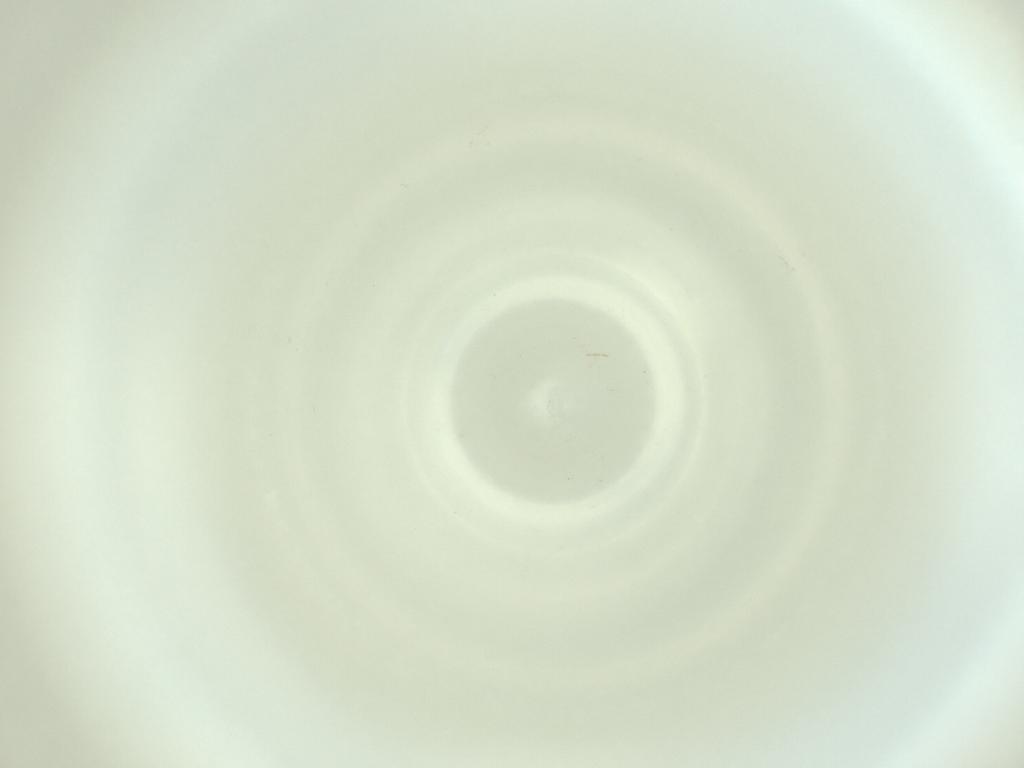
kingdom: Animalia
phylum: Arthropoda
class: Insecta
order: Diptera
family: Cecidomyiidae
